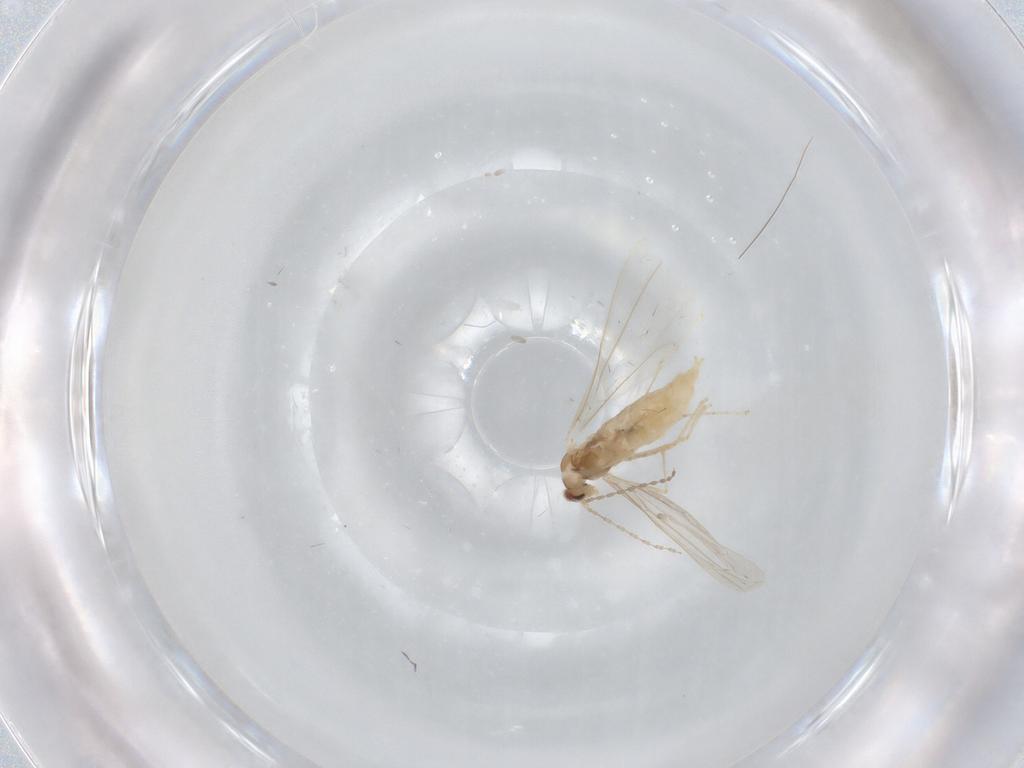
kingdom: Animalia
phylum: Arthropoda
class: Insecta
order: Diptera
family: Cecidomyiidae
